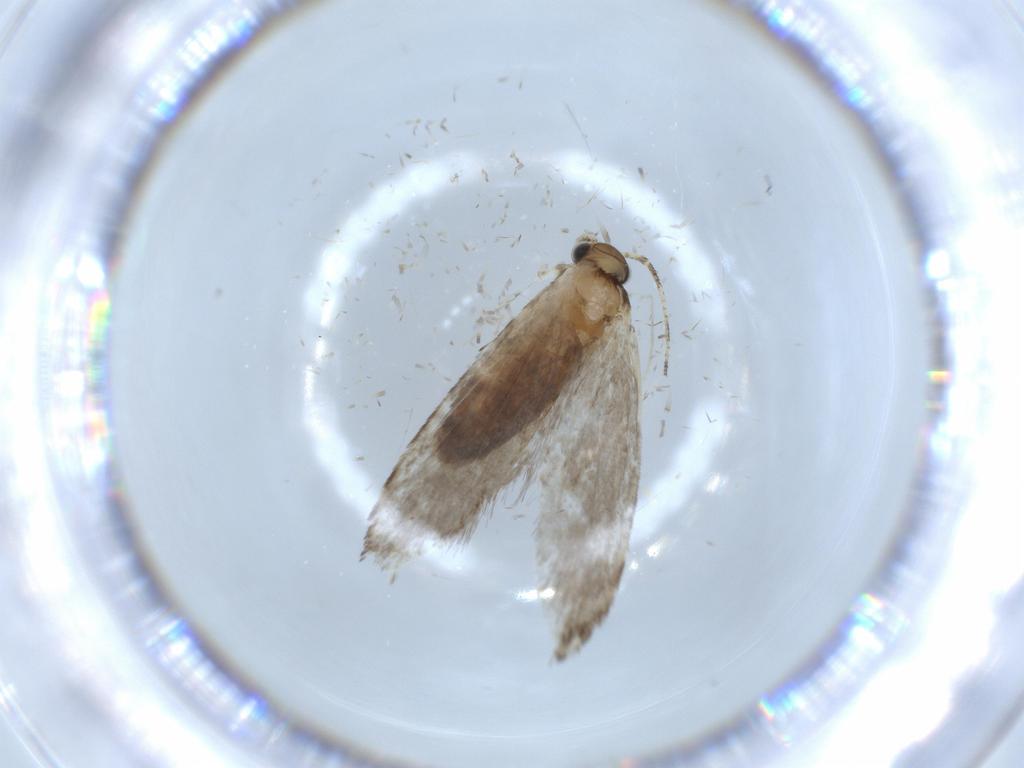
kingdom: Animalia
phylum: Arthropoda
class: Insecta
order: Lepidoptera
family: Tineidae
